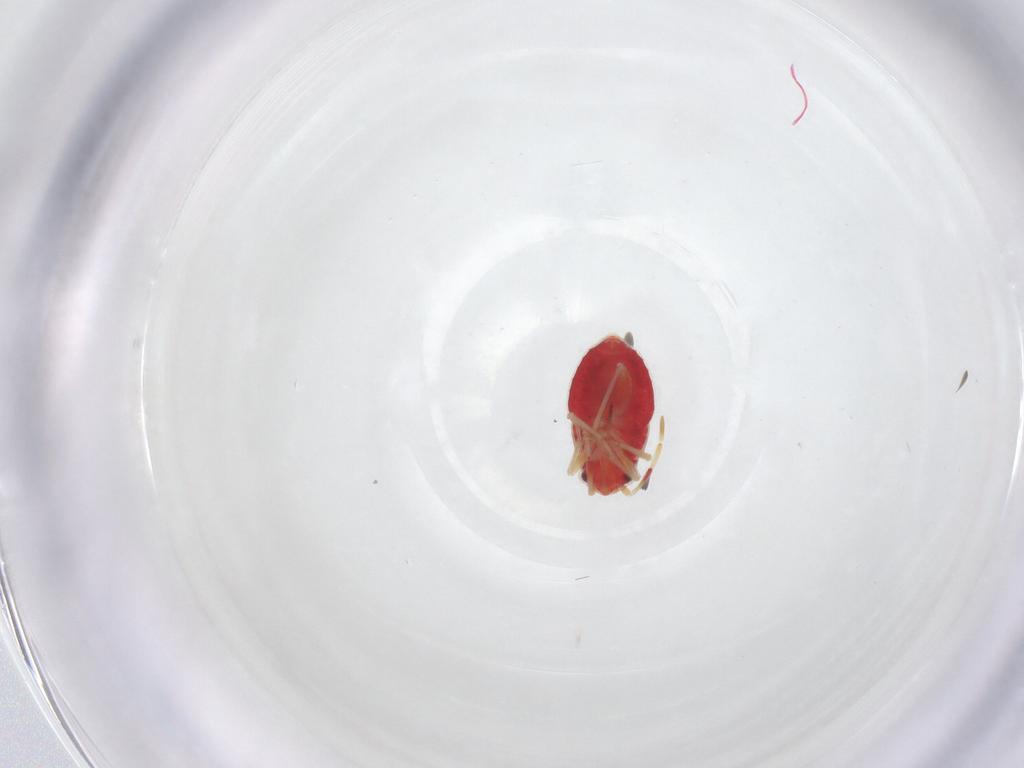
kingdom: Animalia
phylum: Arthropoda
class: Insecta
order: Hemiptera
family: Miridae
